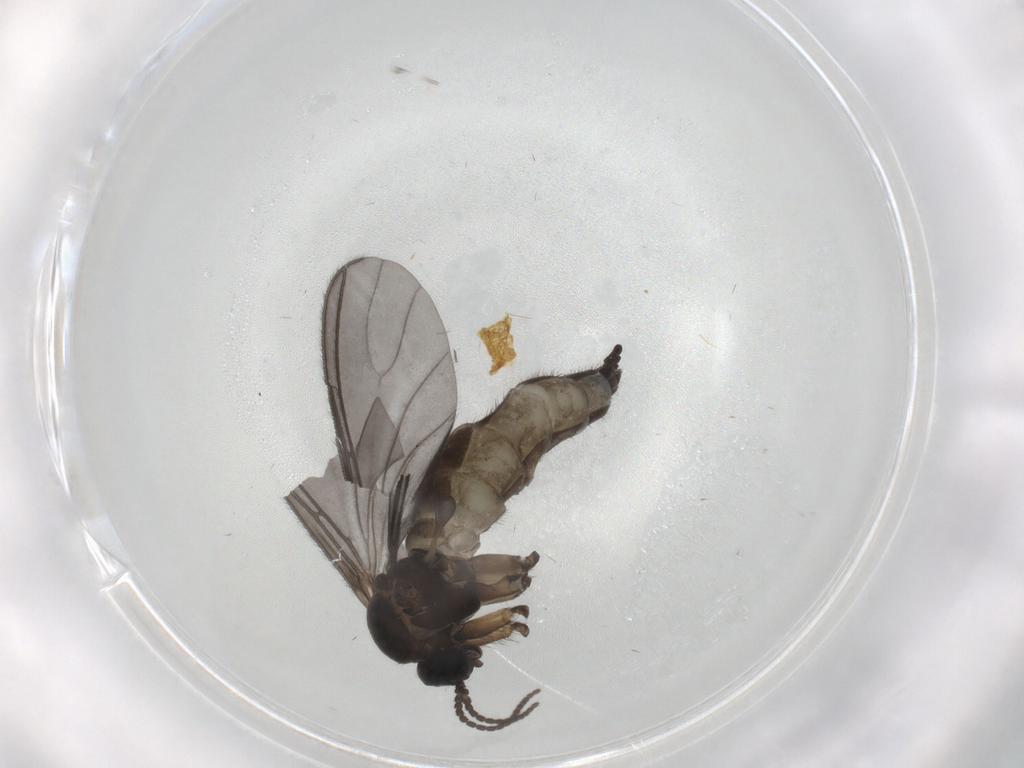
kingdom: Animalia
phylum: Arthropoda
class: Insecta
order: Diptera
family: Sciaridae
